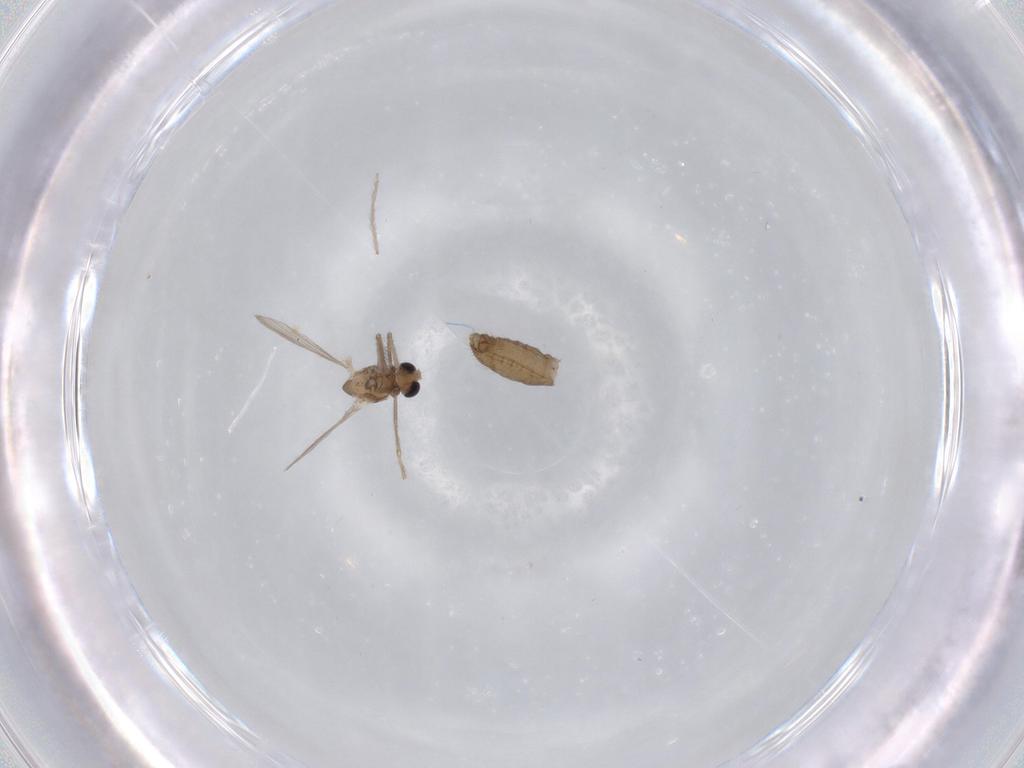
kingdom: Animalia
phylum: Arthropoda
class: Insecta
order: Diptera
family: Chironomidae
